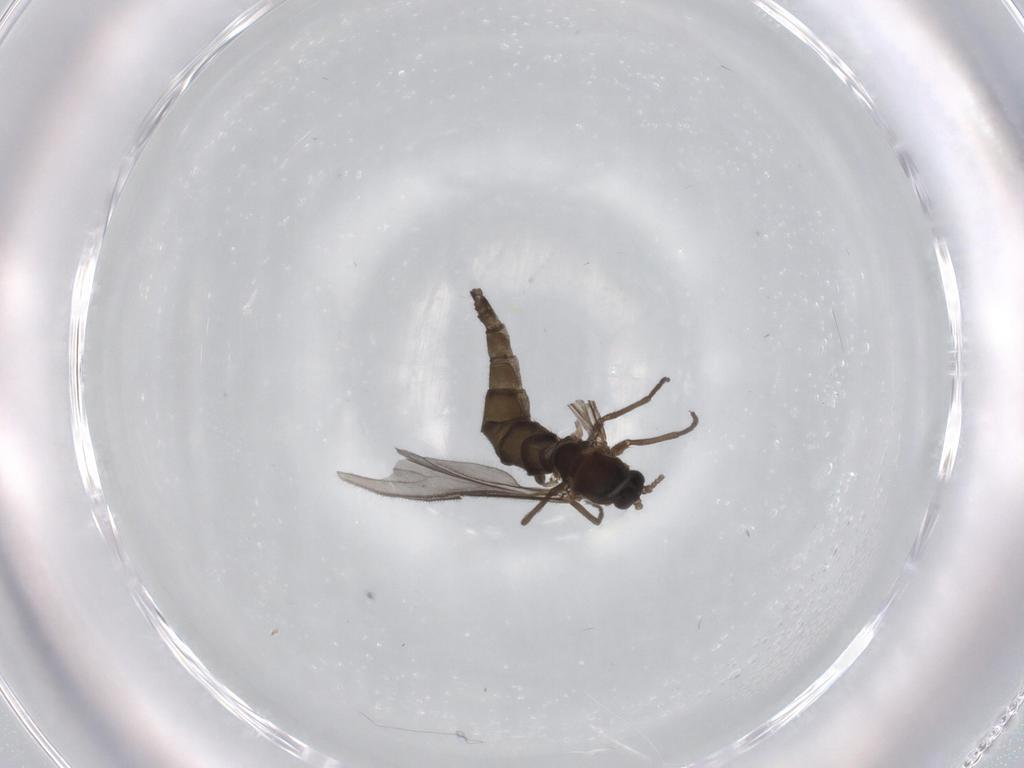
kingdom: Animalia
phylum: Arthropoda
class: Insecta
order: Diptera
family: Sciaridae
